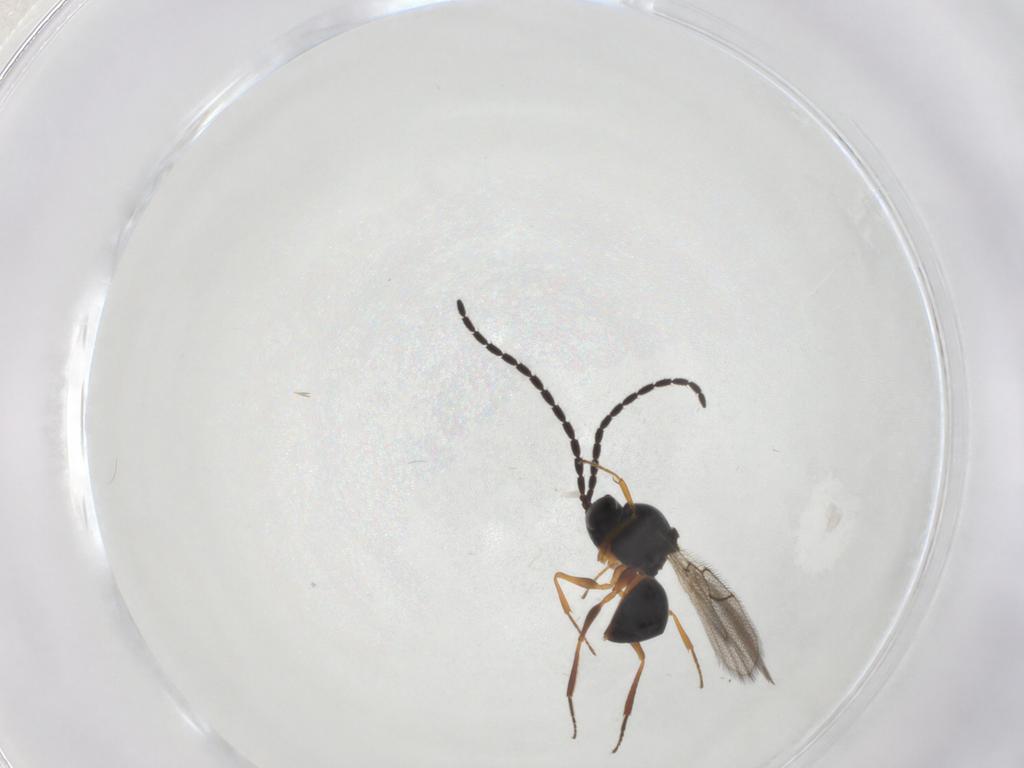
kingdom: Animalia
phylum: Arthropoda
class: Insecta
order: Hymenoptera
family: Figitidae
